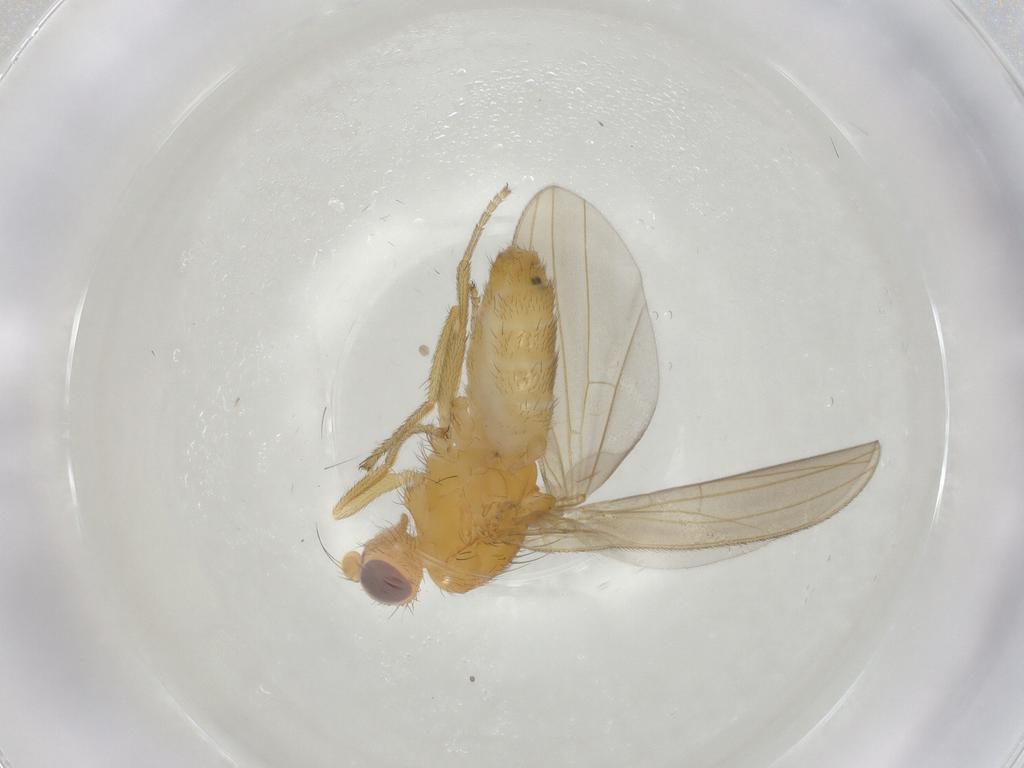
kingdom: Animalia
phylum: Arthropoda
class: Insecta
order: Diptera
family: Natalimyzidae
